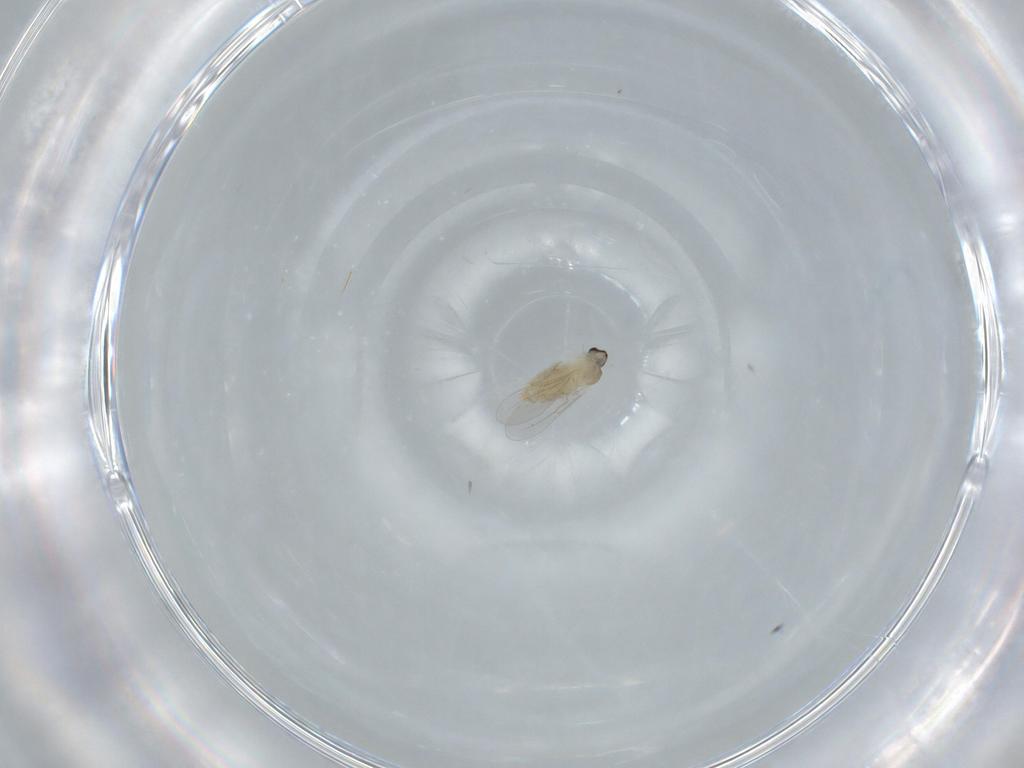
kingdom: Animalia
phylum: Arthropoda
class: Insecta
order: Diptera
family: Cecidomyiidae
